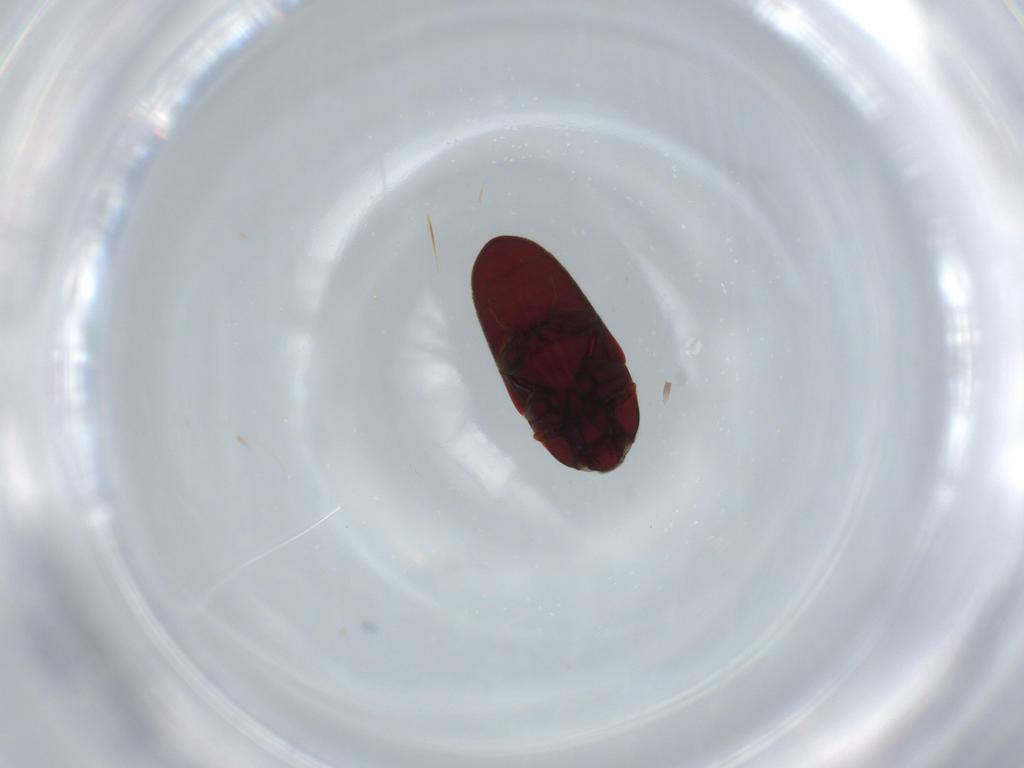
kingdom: Animalia
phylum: Arthropoda
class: Insecta
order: Coleoptera
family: Throscidae
